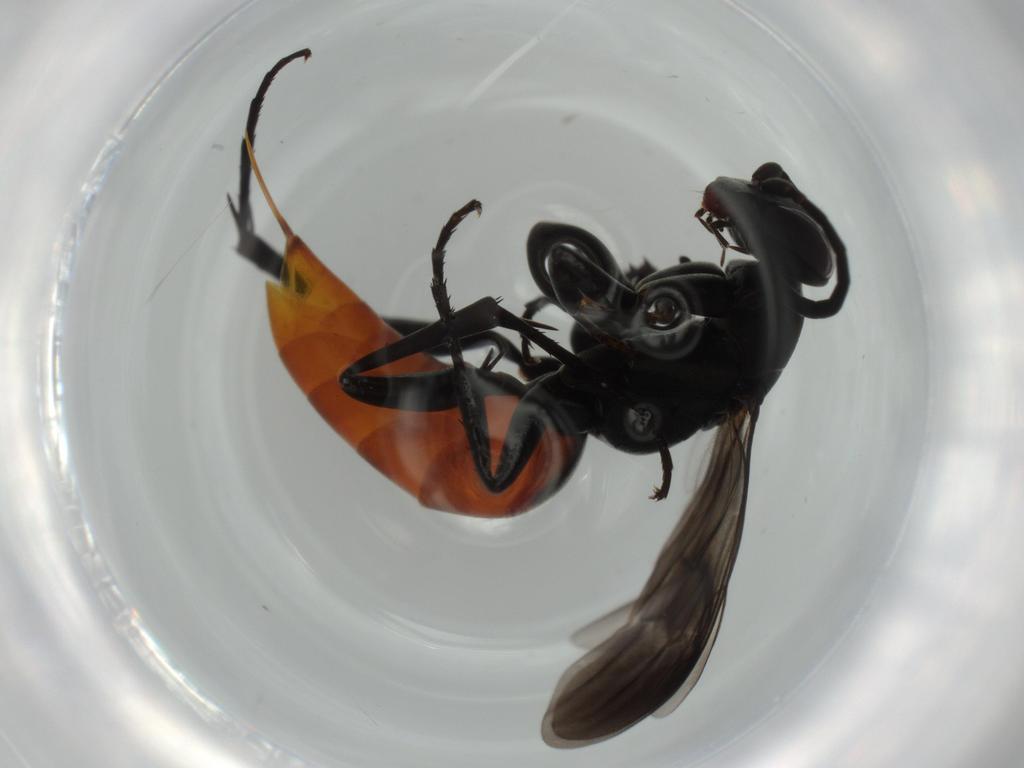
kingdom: Animalia
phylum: Arthropoda
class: Insecta
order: Hymenoptera
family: Pompilidae
